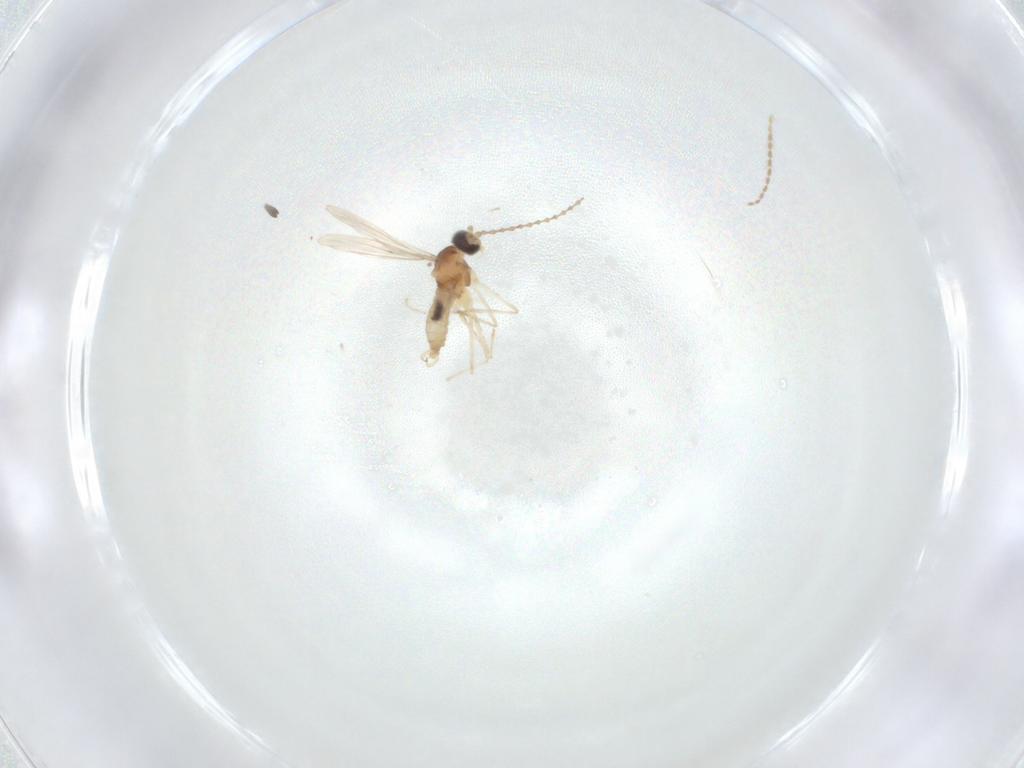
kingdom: Animalia
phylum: Arthropoda
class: Insecta
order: Diptera
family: Cecidomyiidae
